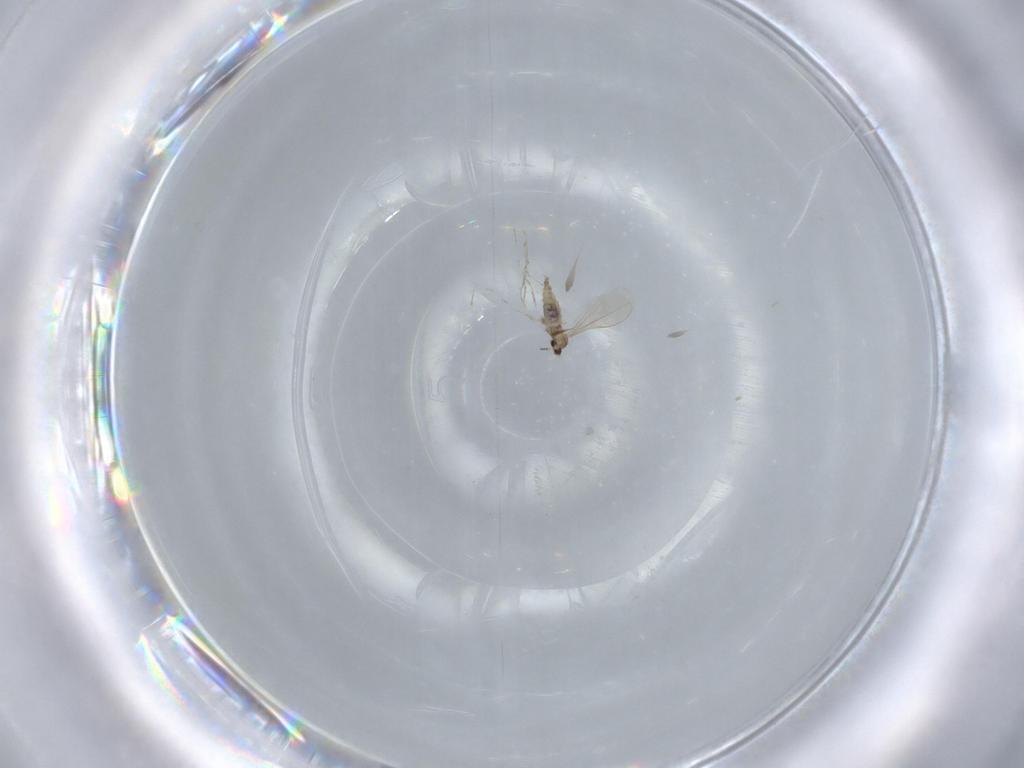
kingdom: Animalia
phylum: Arthropoda
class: Insecta
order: Diptera
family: Cecidomyiidae
